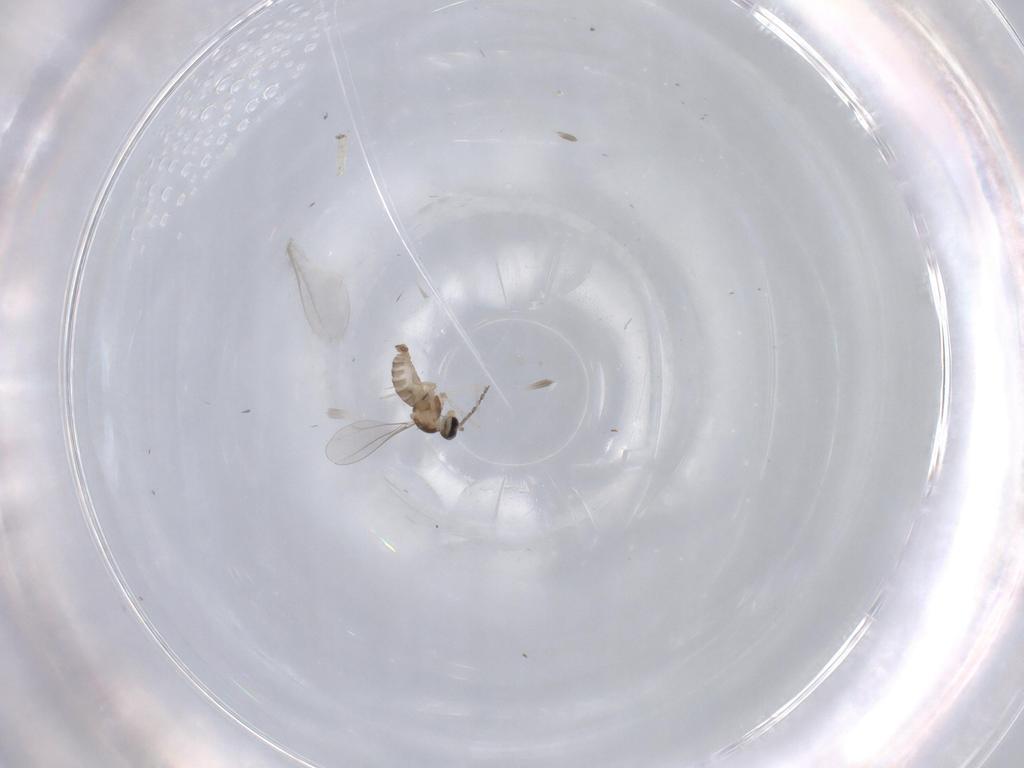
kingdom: Animalia
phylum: Arthropoda
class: Insecta
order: Diptera
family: Sciaridae
